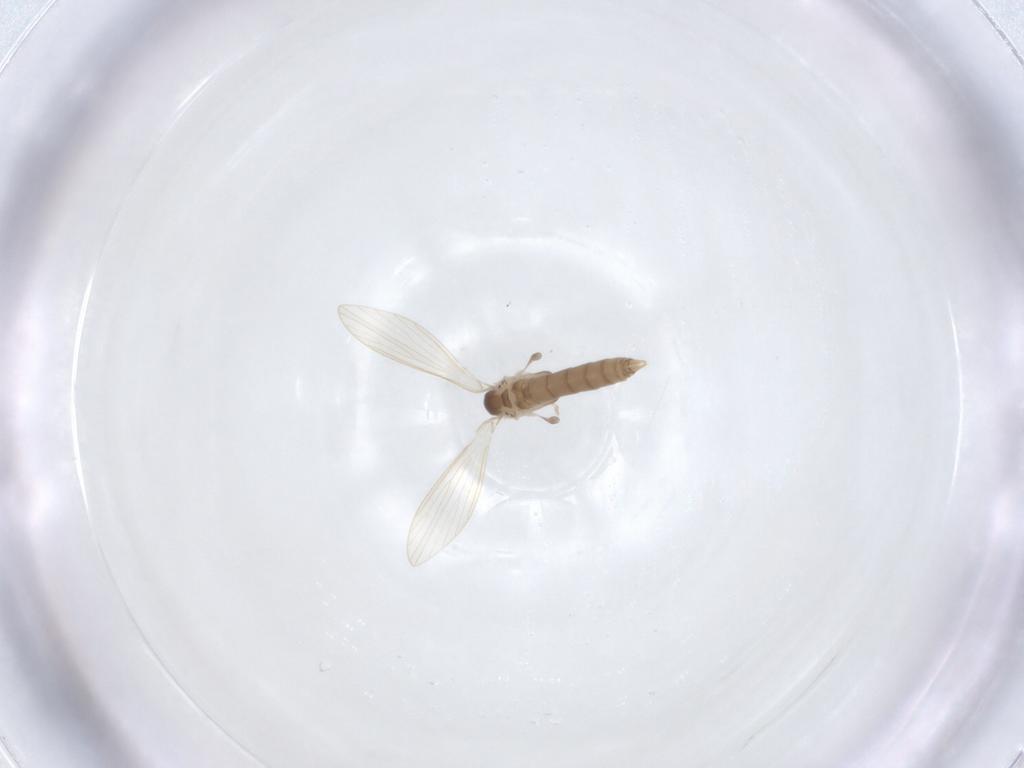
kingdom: Animalia
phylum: Arthropoda
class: Insecta
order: Diptera
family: Psychodidae
